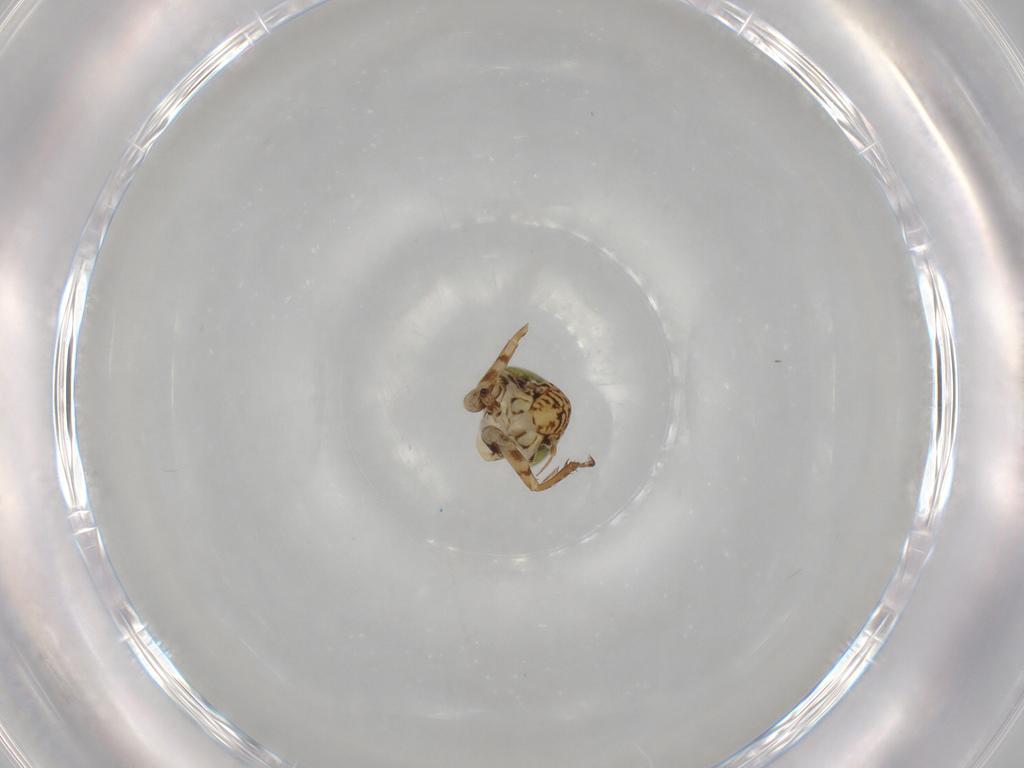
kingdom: Animalia
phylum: Arthropoda
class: Insecta
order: Hemiptera
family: Cicadellidae
